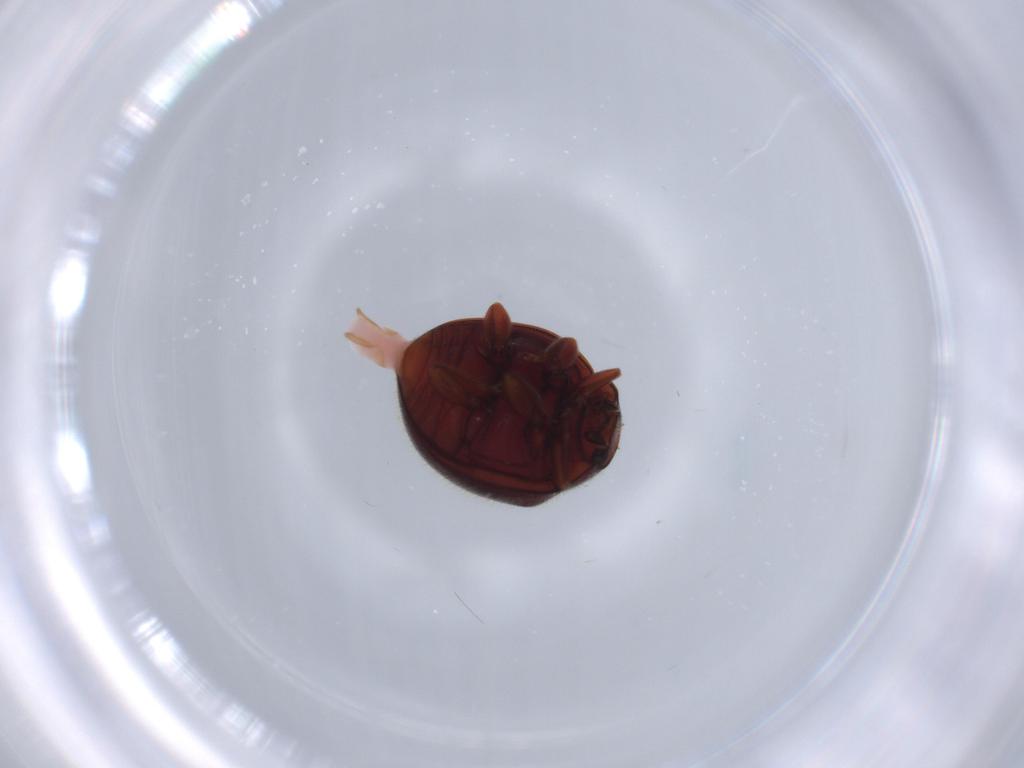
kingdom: Animalia
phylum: Arthropoda
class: Insecta
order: Coleoptera
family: Coccinellidae
